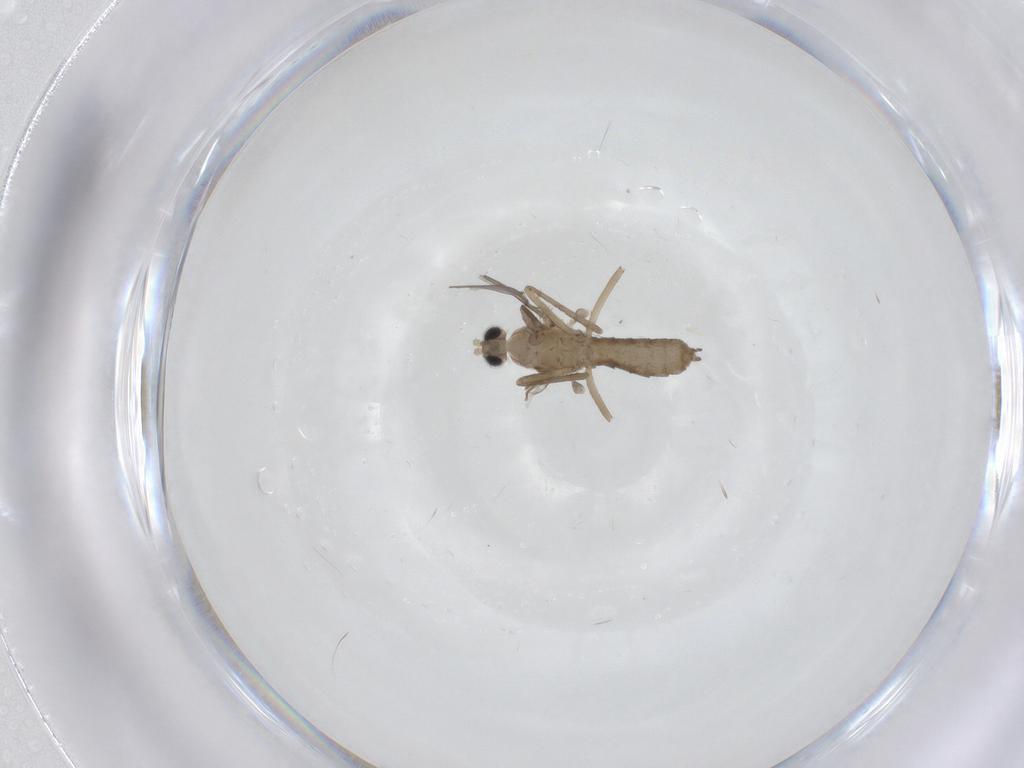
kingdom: Animalia
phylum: Arthropoda
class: Insecta
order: Diptera
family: Cecidomyiidae
